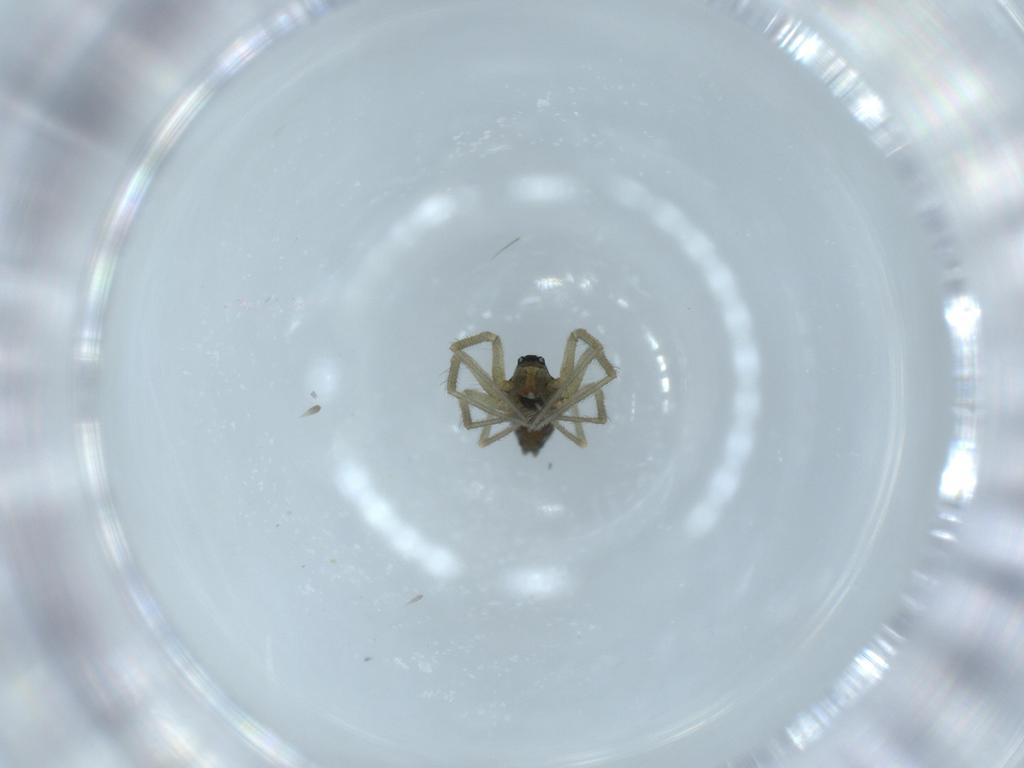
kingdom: Animalia
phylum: Arthropoda
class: Arachnida
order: Araneae
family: Linyphiidae
